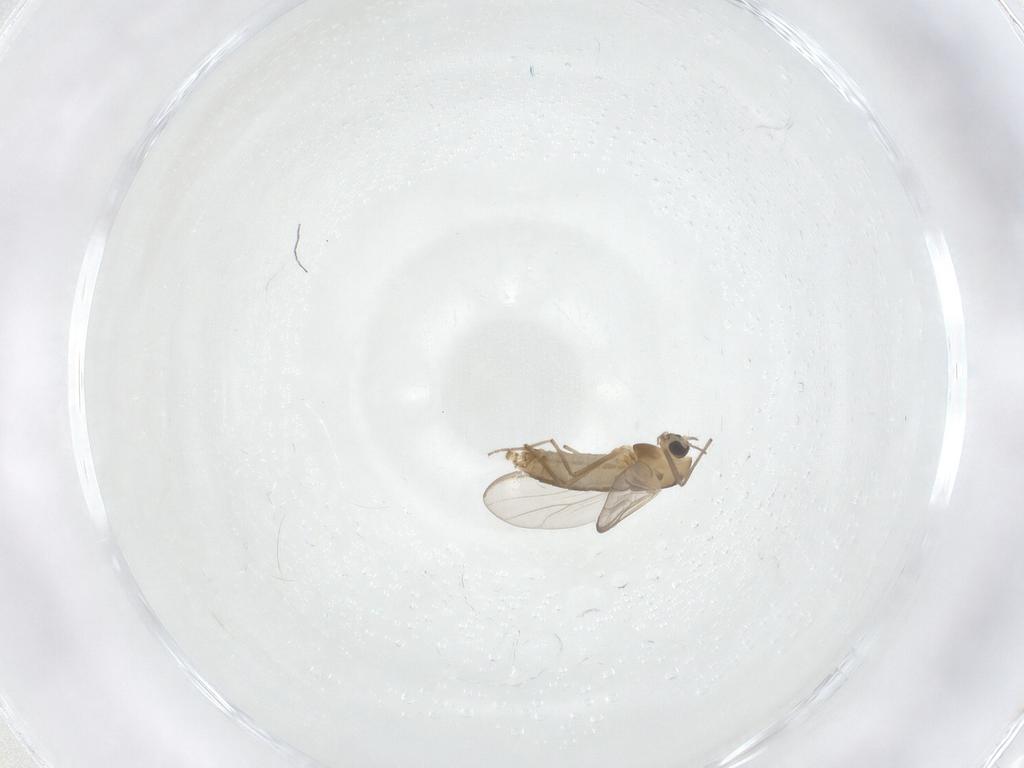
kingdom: Animalia
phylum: Arthropoda
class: Insecta
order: Diptera
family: Chironomidae
